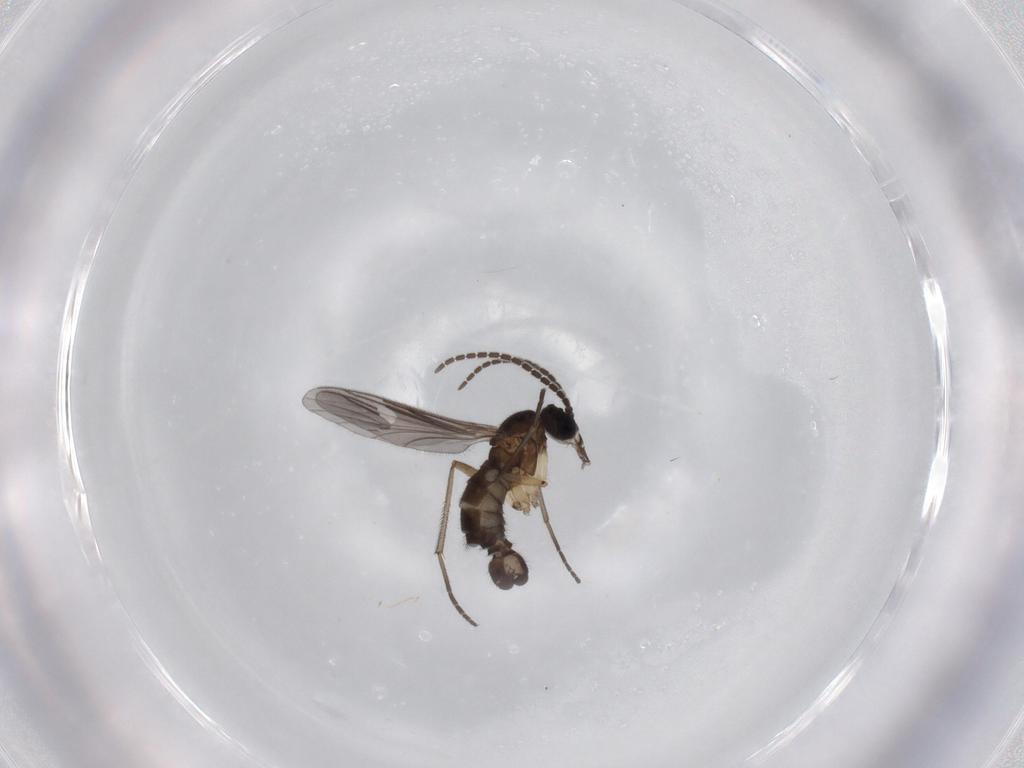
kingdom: Animalia
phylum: Arthropoda
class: Insecta
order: Diptera
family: Sciaridae
